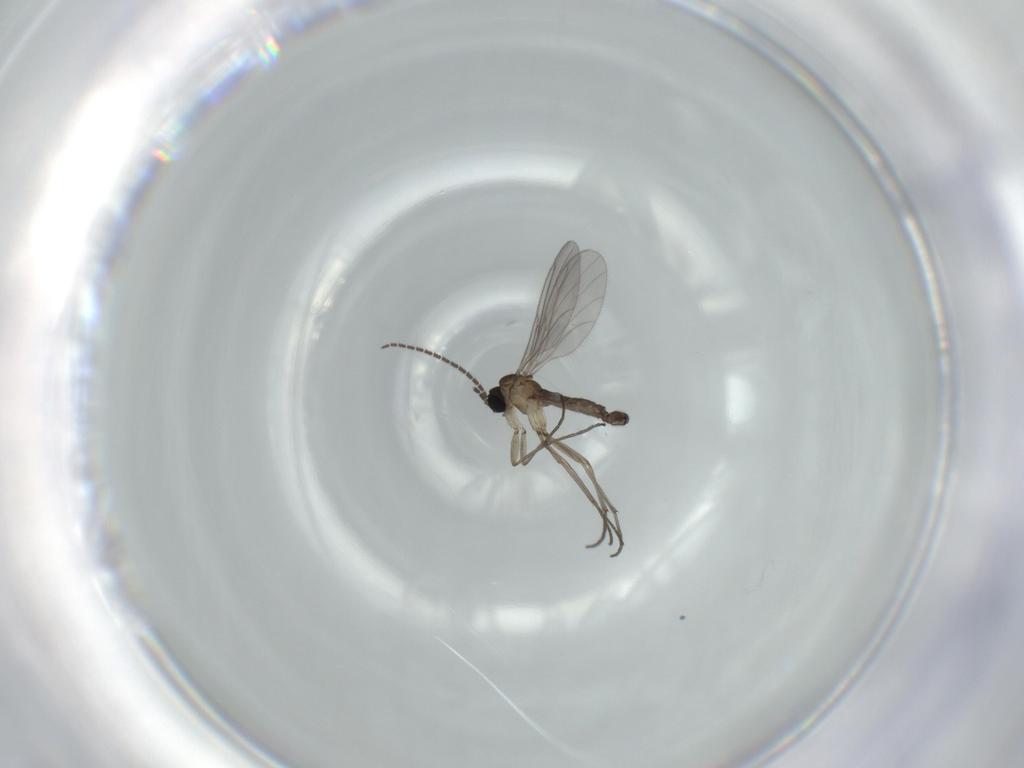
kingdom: Animalia
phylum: Arthropoda
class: Insecta
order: Diptera
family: Sciaridae
